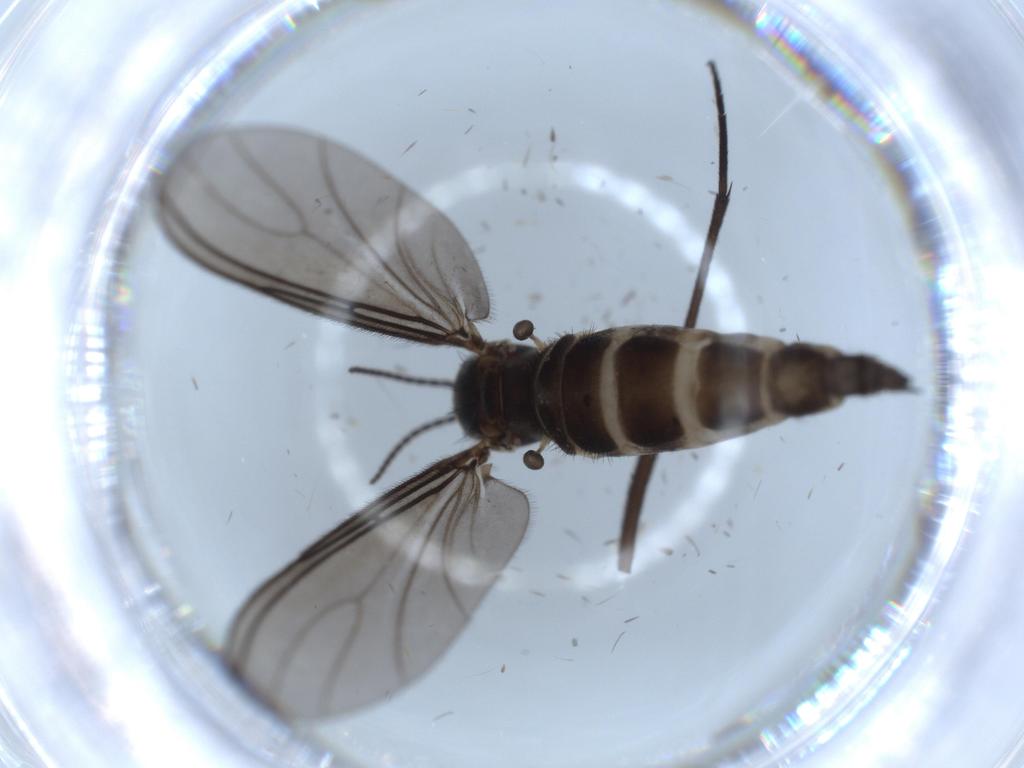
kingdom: Animalia
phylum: Arthropoda
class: Insecta
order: Diptera
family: Sciaridae
